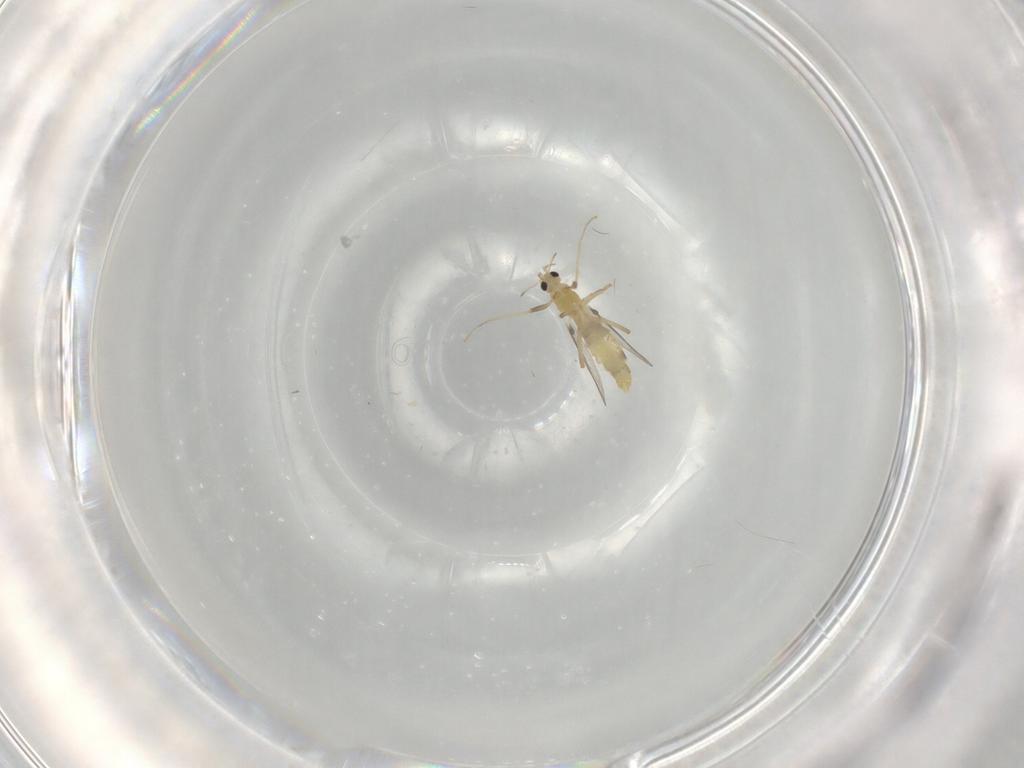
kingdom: Animalia
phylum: Arthropoda
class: Insecta
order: Diptera
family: Chironomidae
